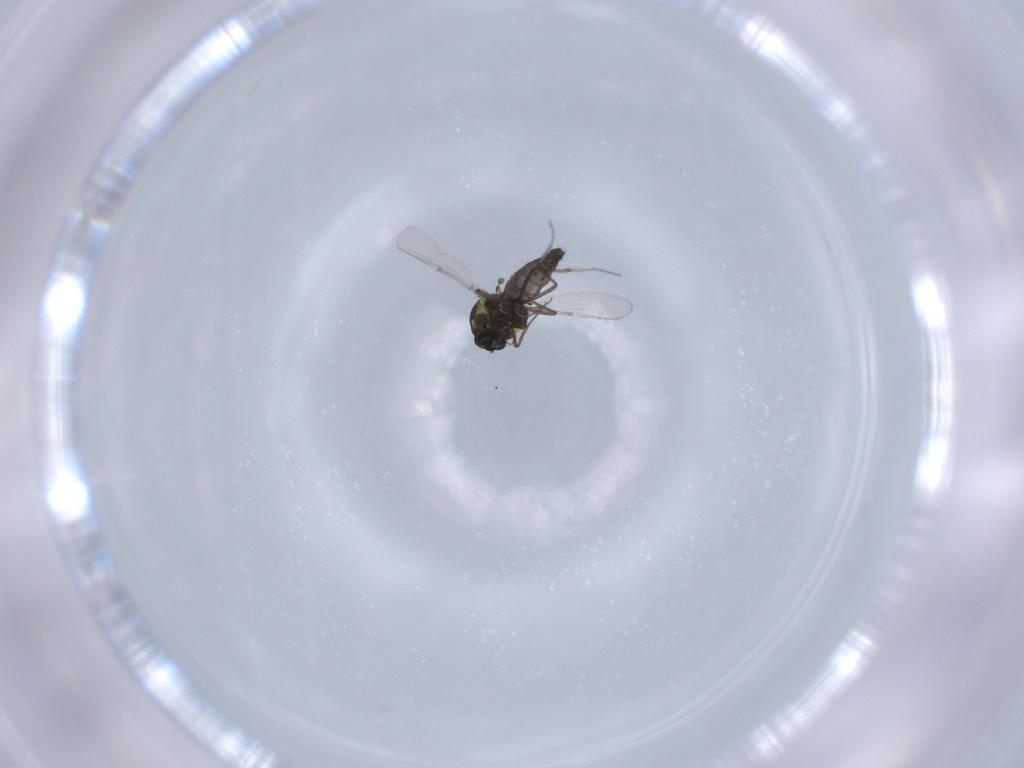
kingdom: Animalia
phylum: Arthropoda
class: Insecta
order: Diptera
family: Ceratopogonidae
